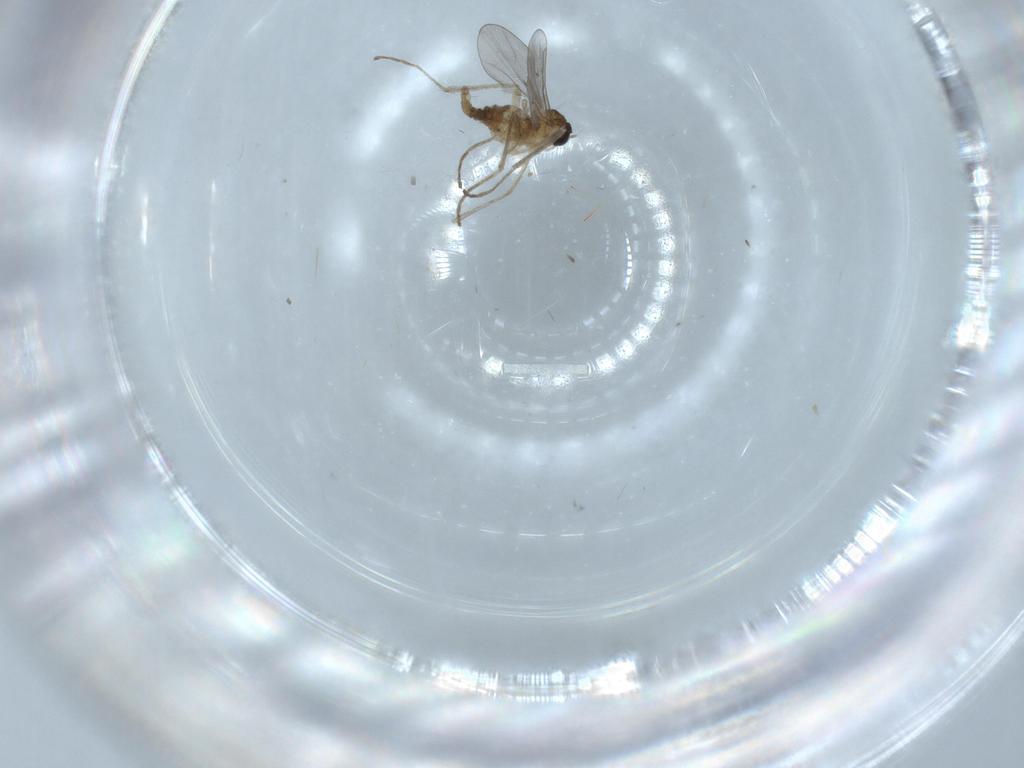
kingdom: Animalia
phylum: Arthropoda
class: Insecta
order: Diptera
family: Cecidomyiidae
